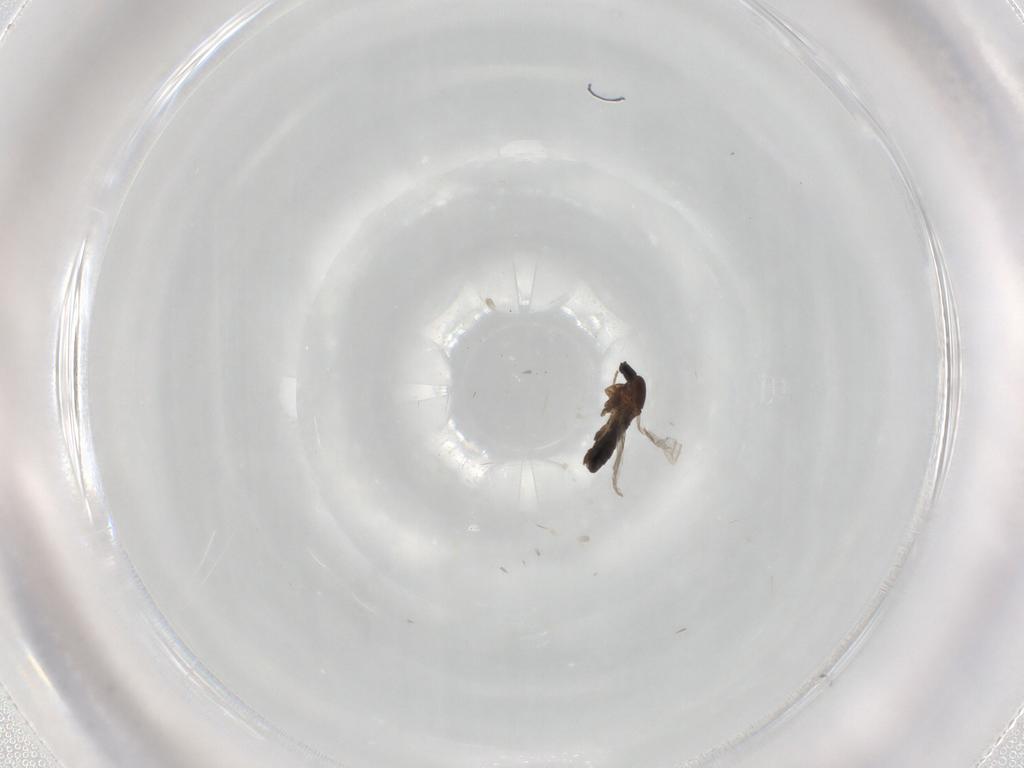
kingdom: Animalia
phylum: Arthropoda
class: Insecta
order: Diptera
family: Scatopsidae
